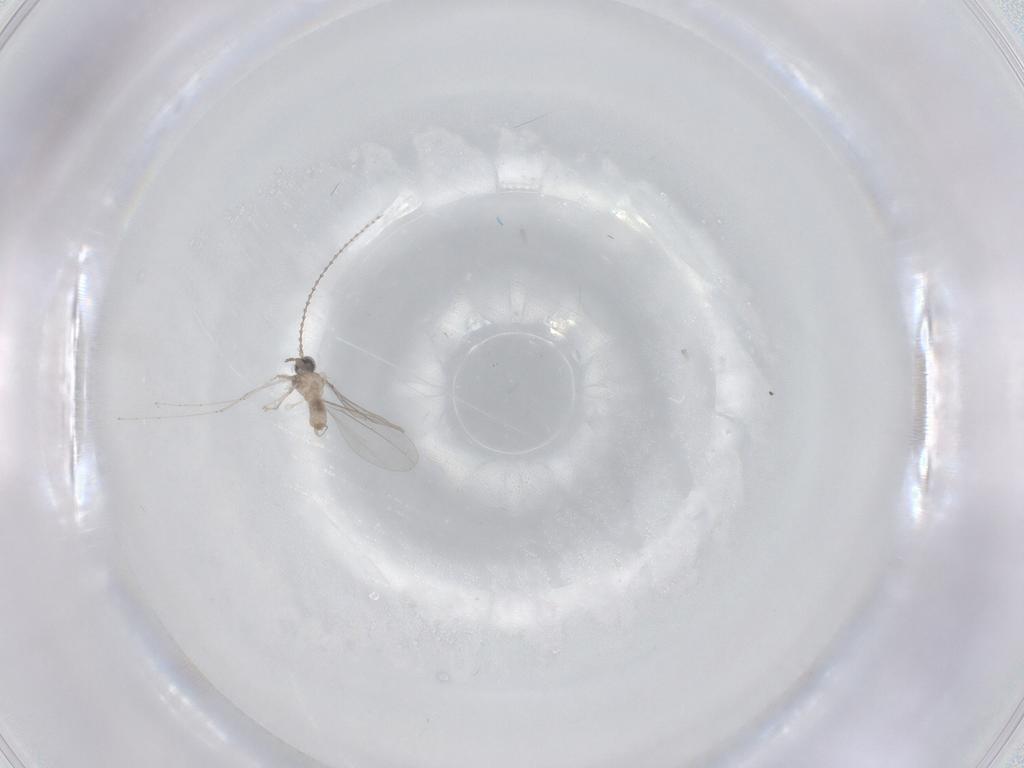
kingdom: Animalia
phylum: Arthropoda
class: Insecta
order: Diptera
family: Cecidomyiidae
